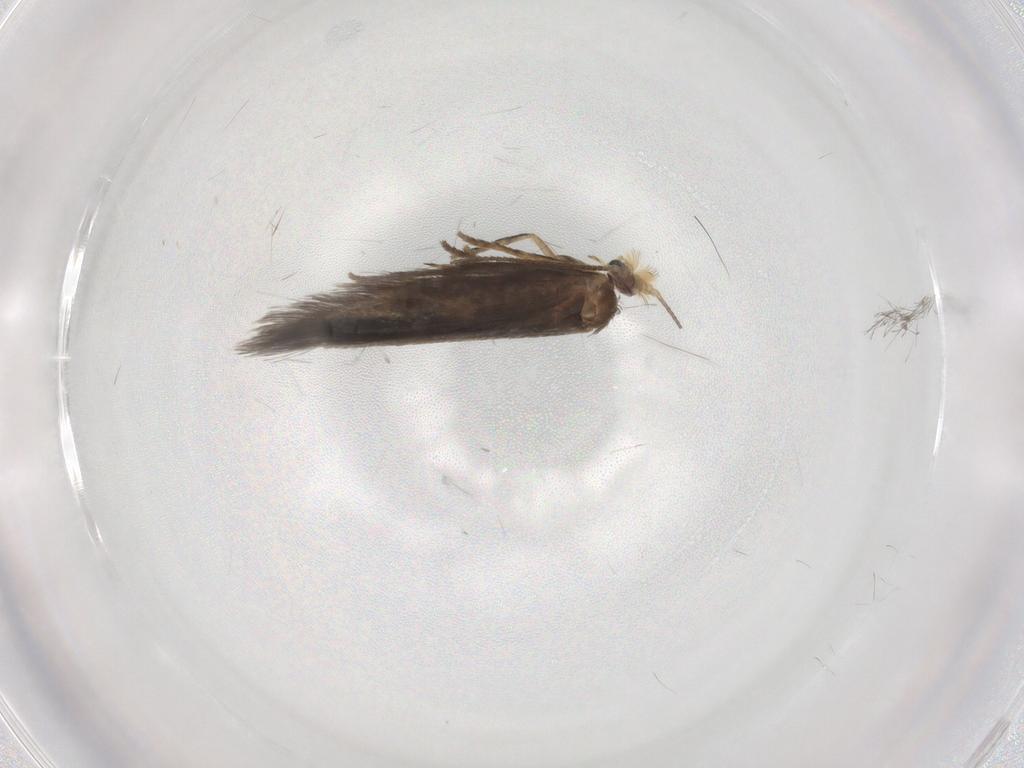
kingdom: Animalia
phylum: Arthropoda
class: Insecta
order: Lepidoptera
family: Nepticulidae
